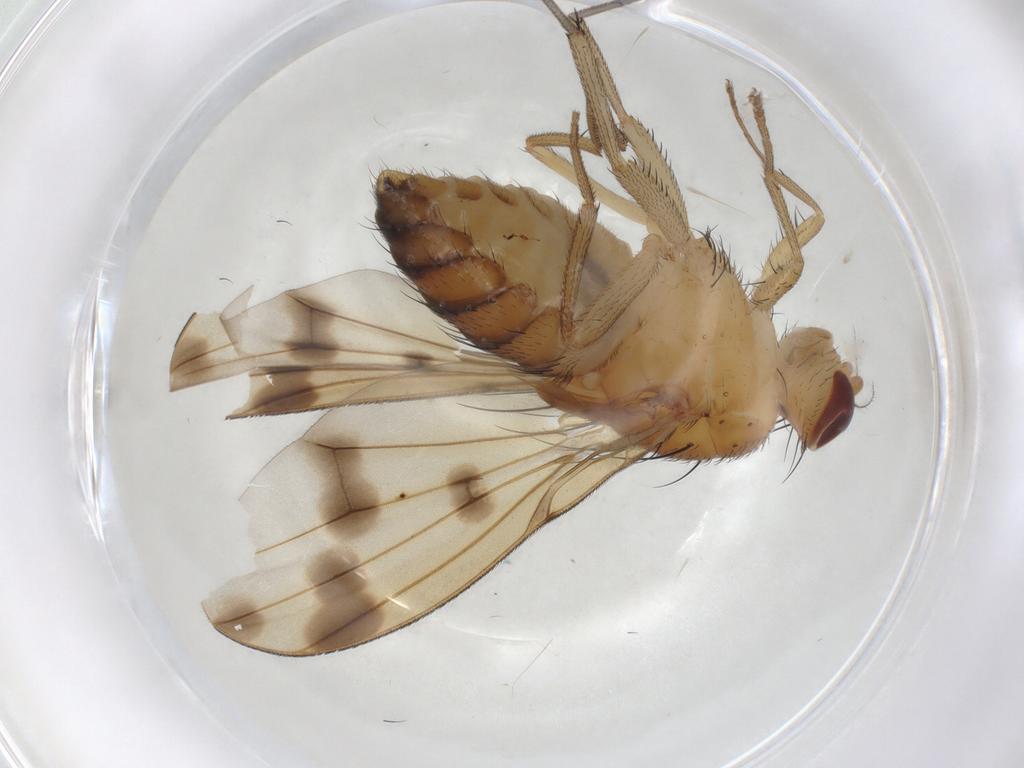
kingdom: Animalia
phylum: Arthropoda
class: Insecta
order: Diptera
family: Lauxaniidae
